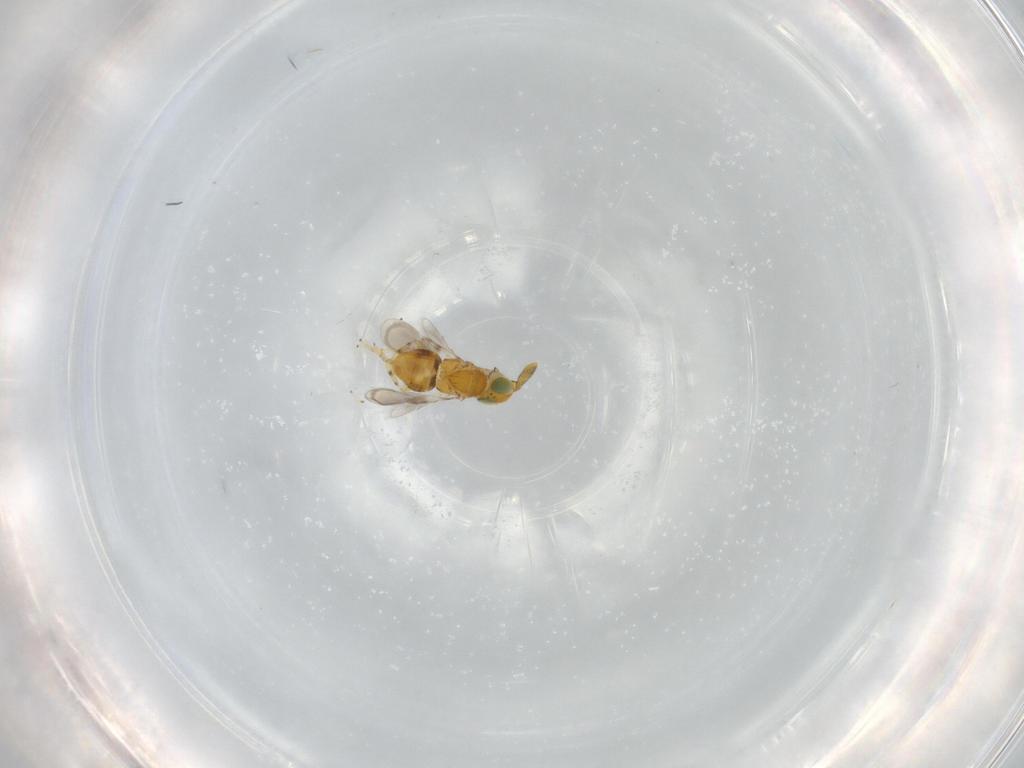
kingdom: Animalia
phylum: Arthropoda
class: Insecta
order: Hymenoptera
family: Encyrtidae
